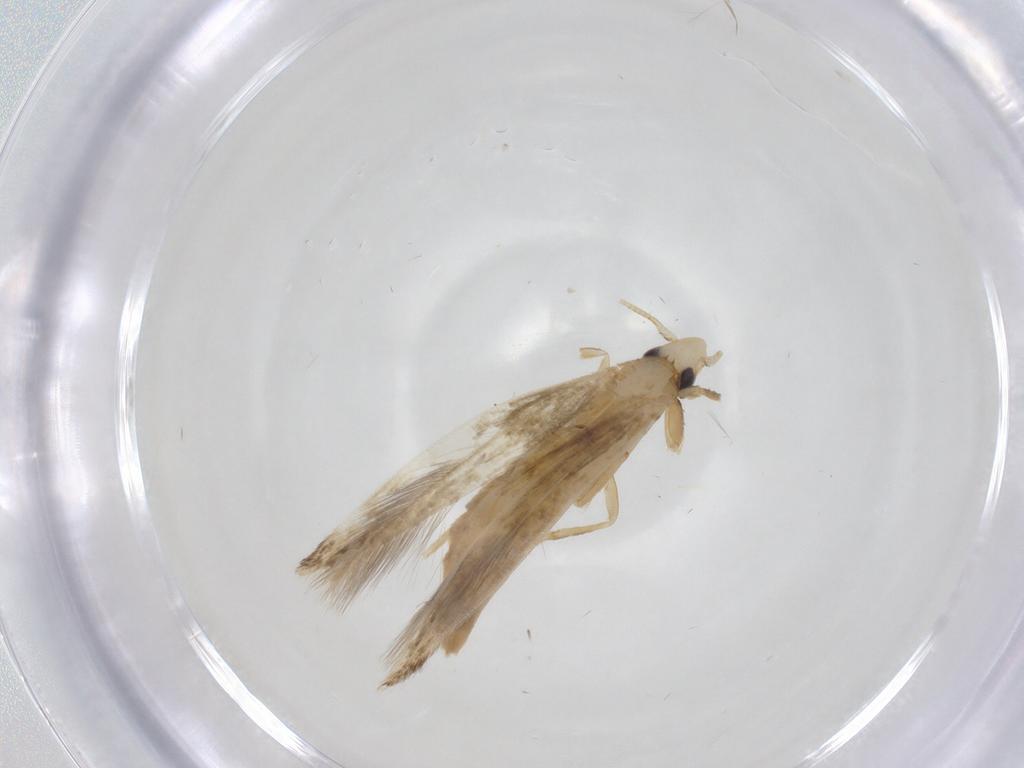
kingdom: Animalia
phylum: Arthropoda
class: Insecta
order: Lepidoptera
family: Tineidae
